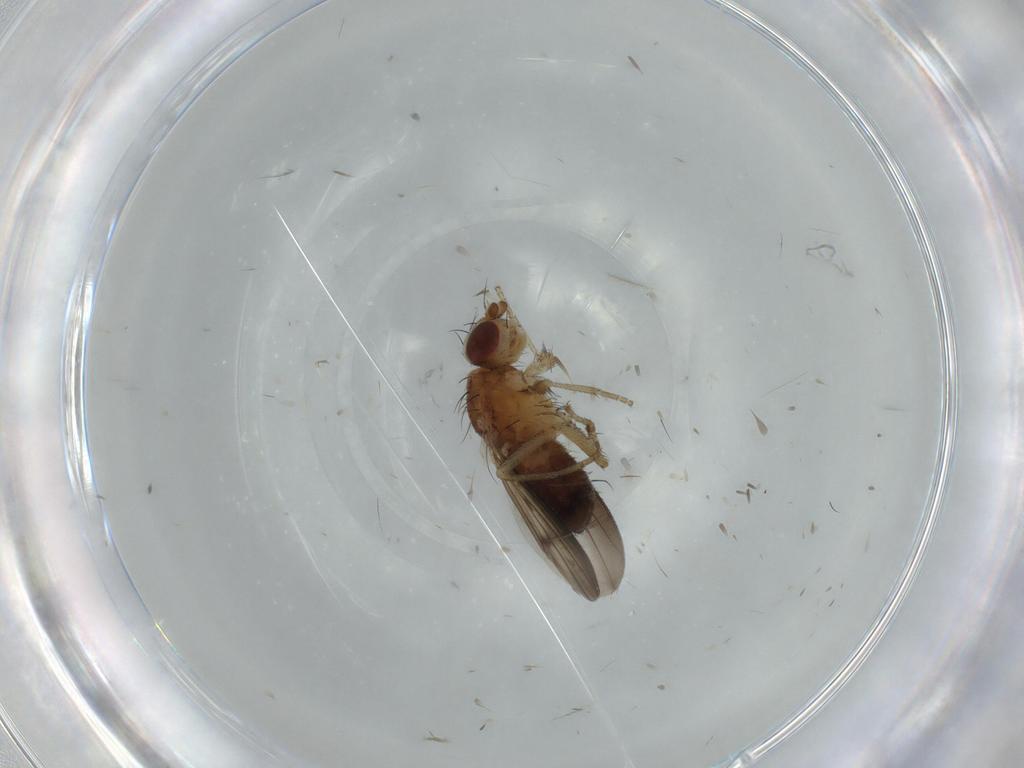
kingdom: Animalia
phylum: Arthropoda
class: Insecta
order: Diptera
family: Heleomyzidae
